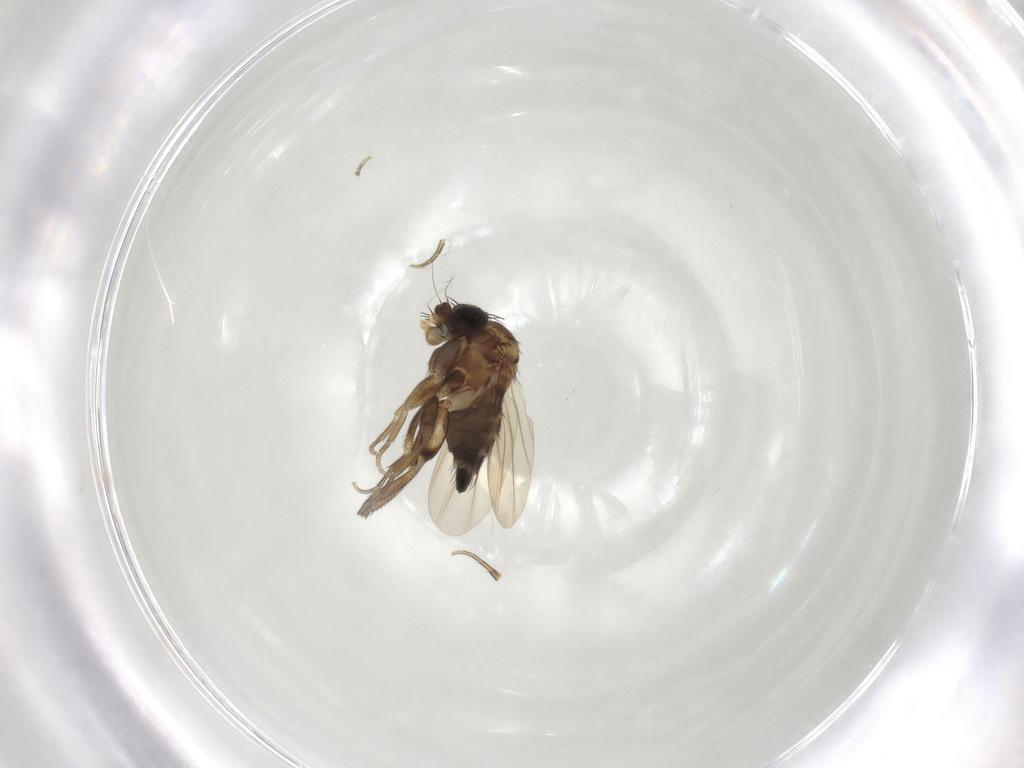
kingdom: Animalia
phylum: Arthropoda
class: Insecta
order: Diptera
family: Phoridae
